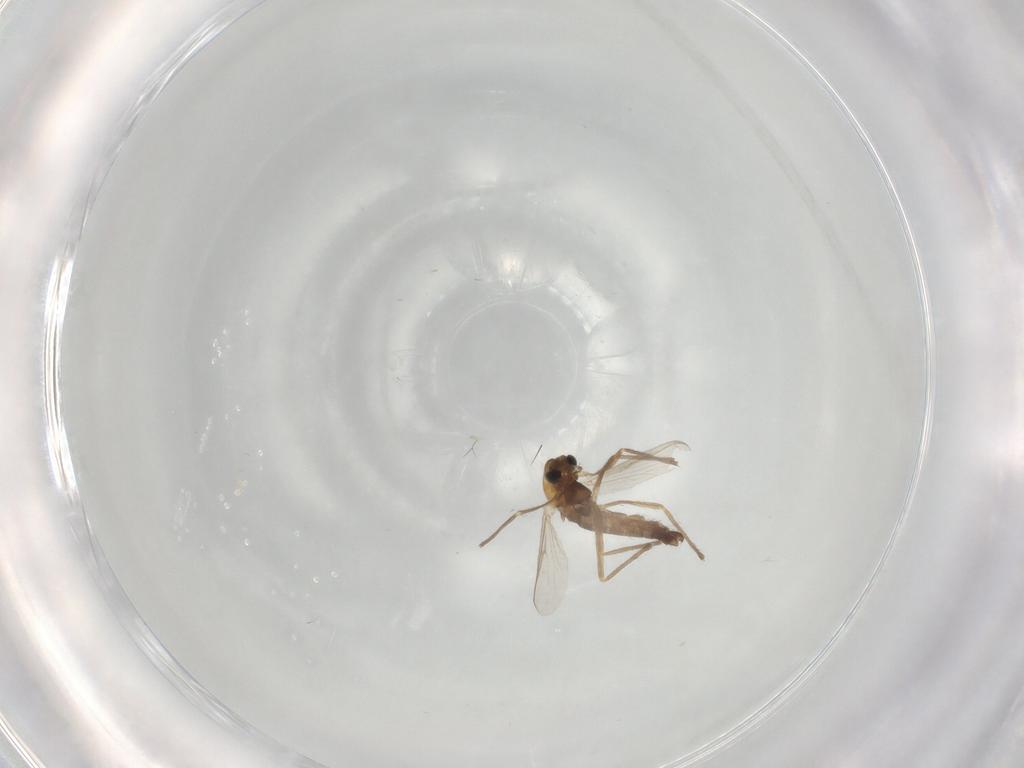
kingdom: Animalia
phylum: Arthropoda
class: Insecta
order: Diptera
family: Chironomidae
